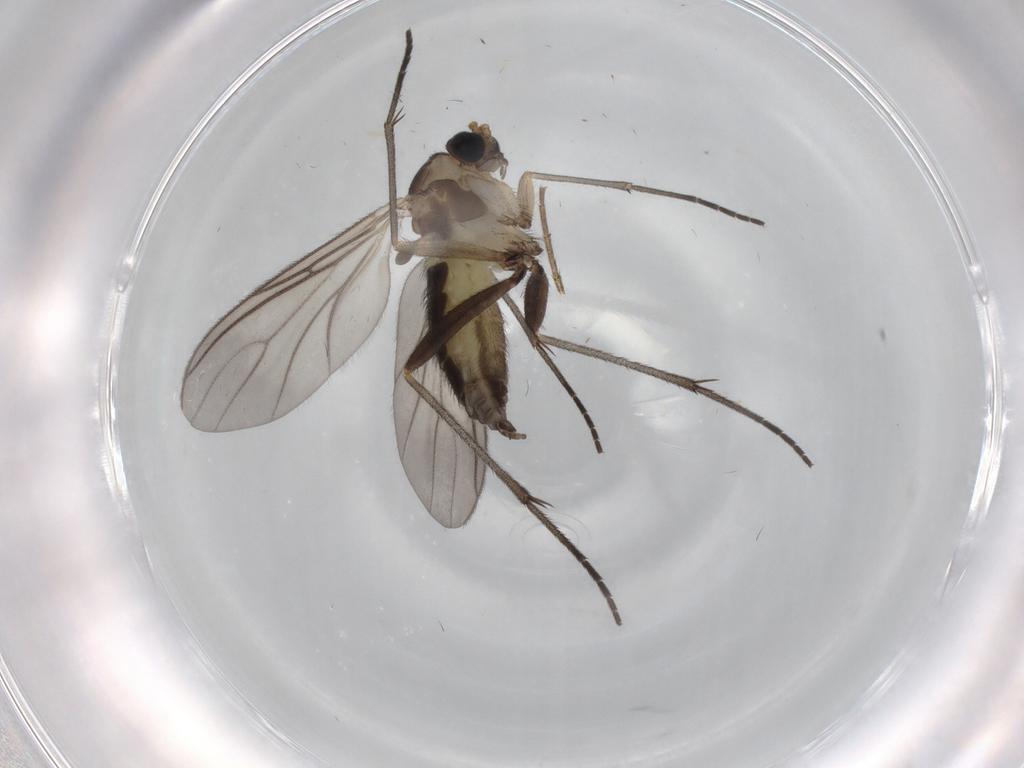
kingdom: Animalia
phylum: Arthropoda
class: Insecta
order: Diptera
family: Sciaridae
